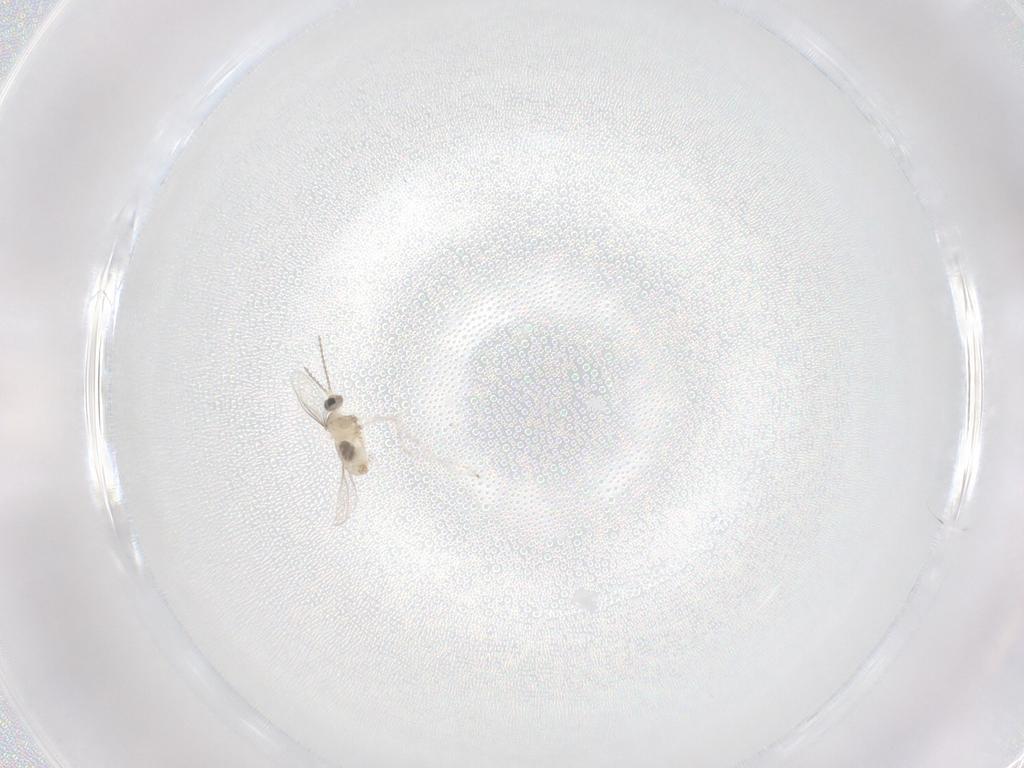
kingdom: Animalia
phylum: Arthropoda
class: Insecta
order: Diptera
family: Cecidomyiidae
